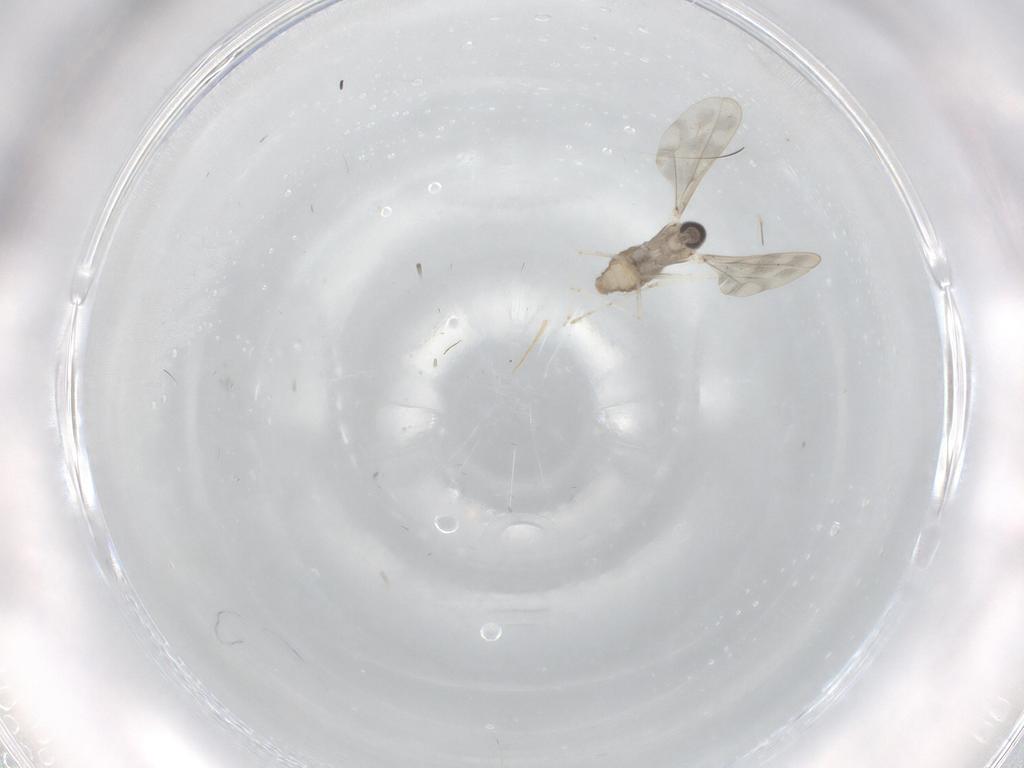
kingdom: Animalia
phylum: Arthropoda
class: Insecta
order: Diptera
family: Cecidomyiidae
